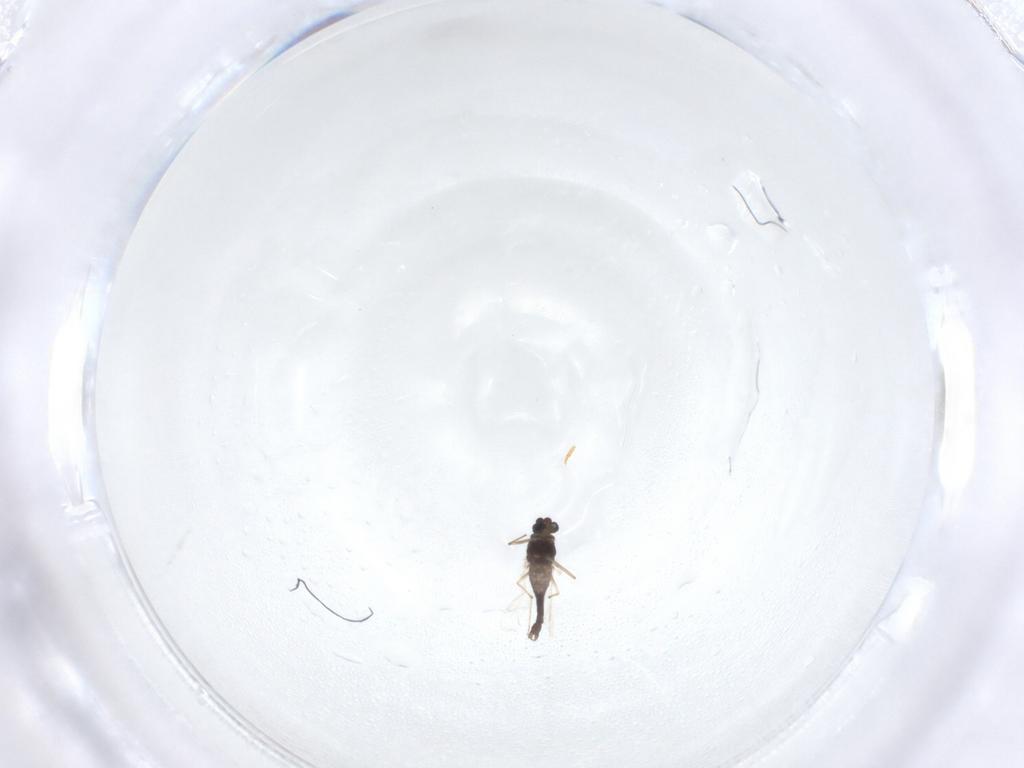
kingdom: Animalia
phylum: Arthropoda
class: Insecta
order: Diptera
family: Chironomidae
